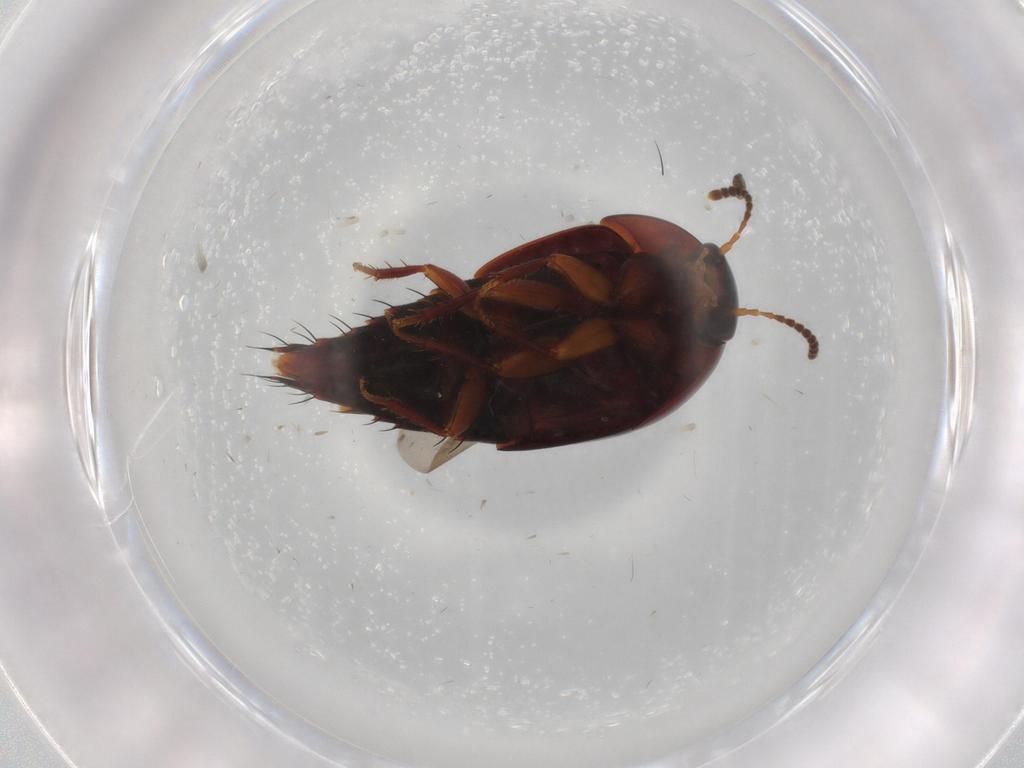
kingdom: Animalia
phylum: Arthropoda
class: Insecta
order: Coleoptera
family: Staphylinidae
